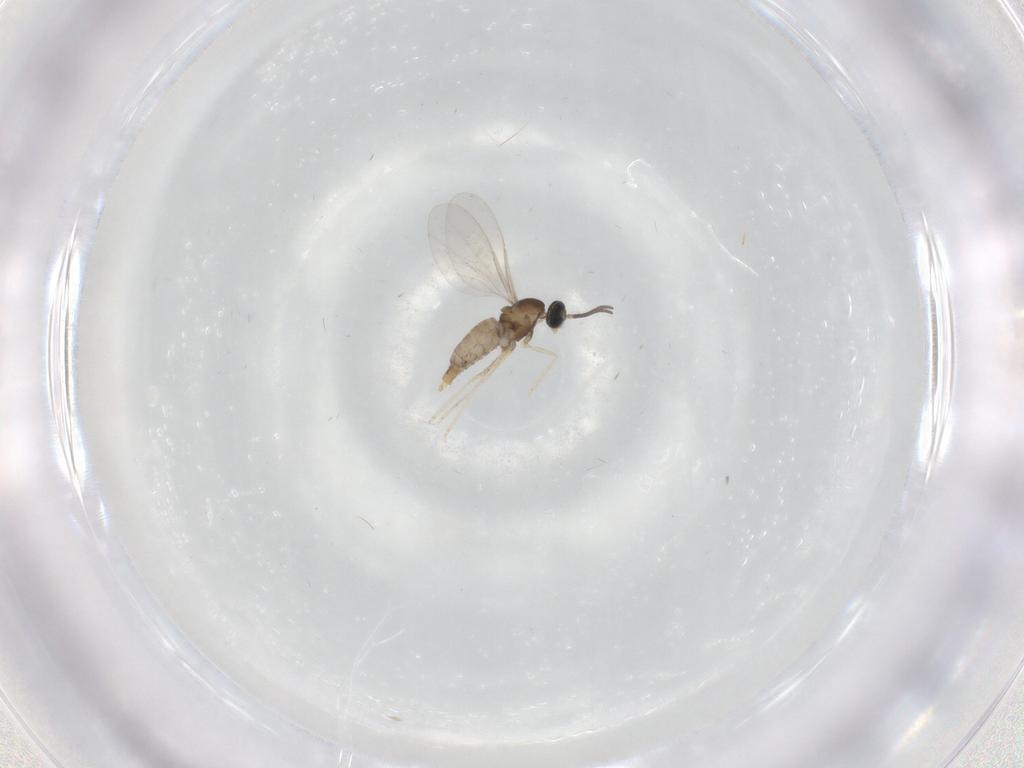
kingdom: Animalia
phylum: Arthropoda
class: Insecta
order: Diptera
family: Cecidomyiidae
